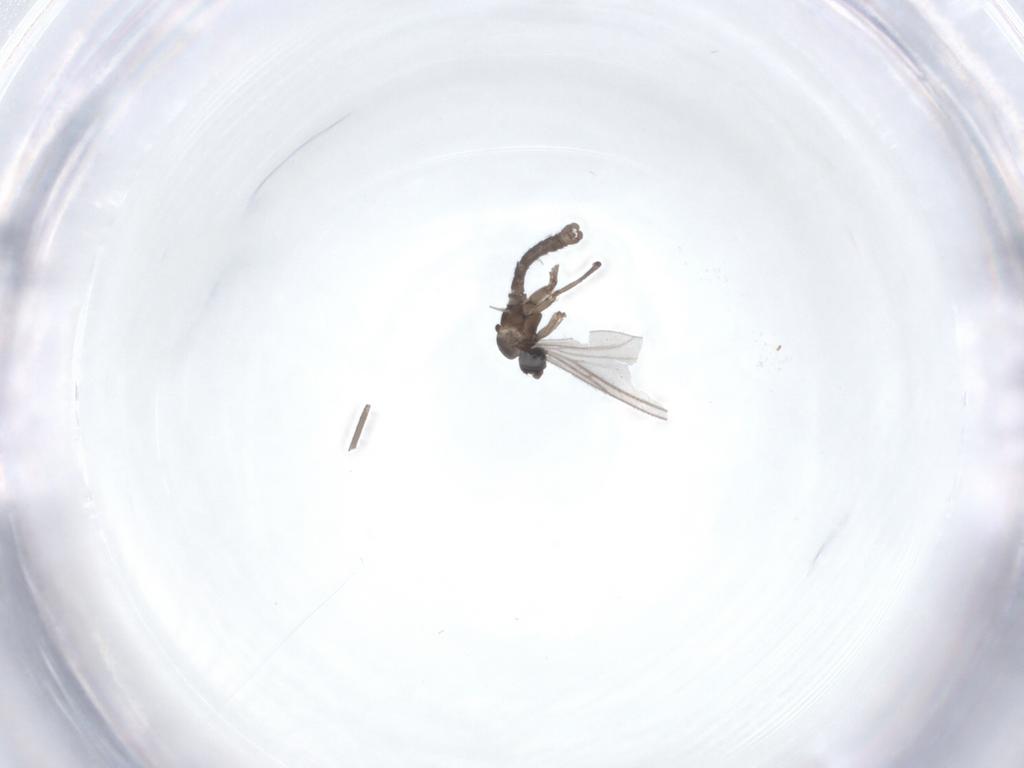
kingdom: Animalia
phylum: Arthropoda
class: Insecta
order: Diptera
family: Sciaridae
